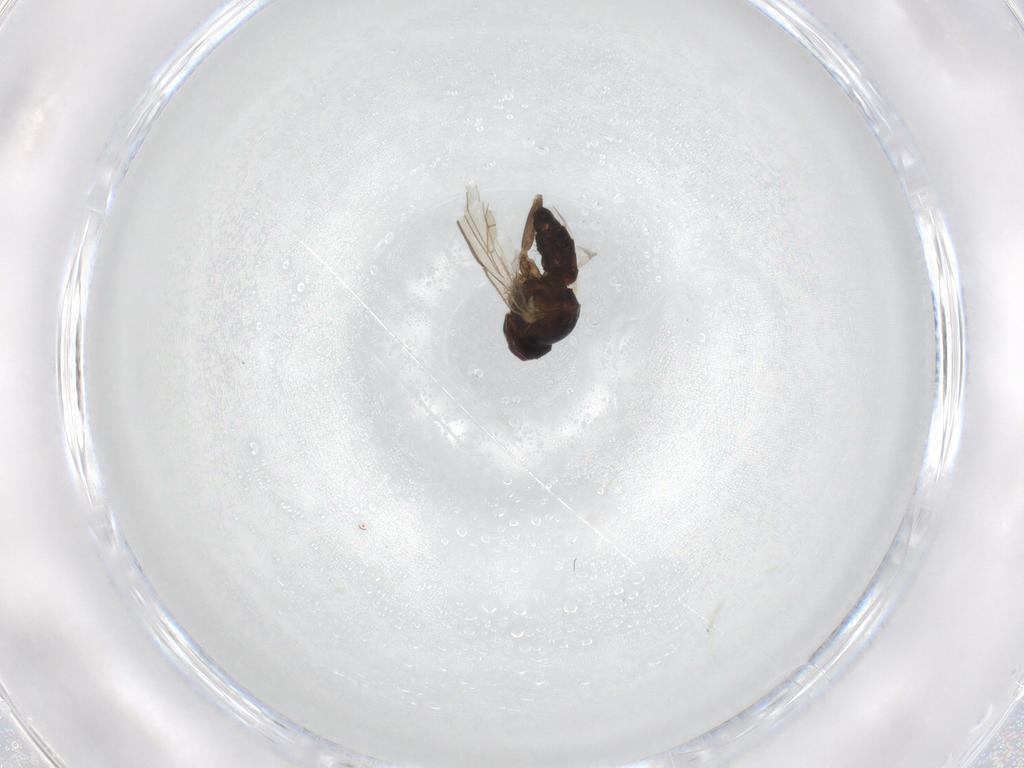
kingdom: Animalia
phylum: Arthropoda
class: Insecta
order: Diptera
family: Agromyzidae
